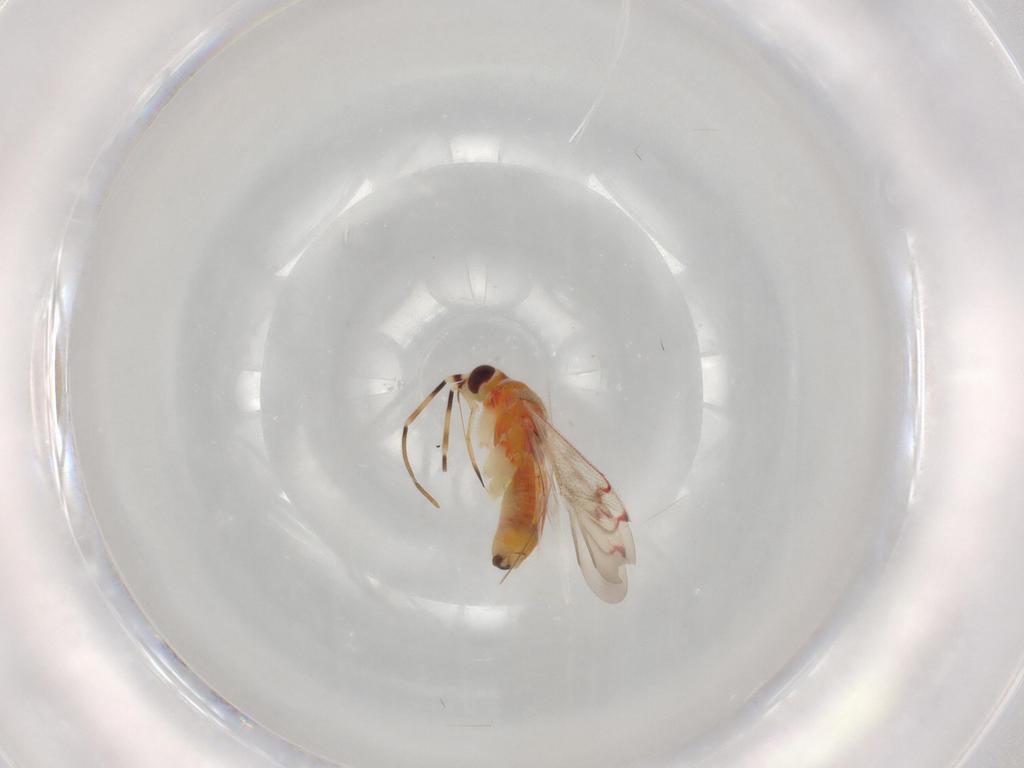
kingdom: Animalia
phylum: Arthropoda
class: Insecta
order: Hemiptera
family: Miridae
